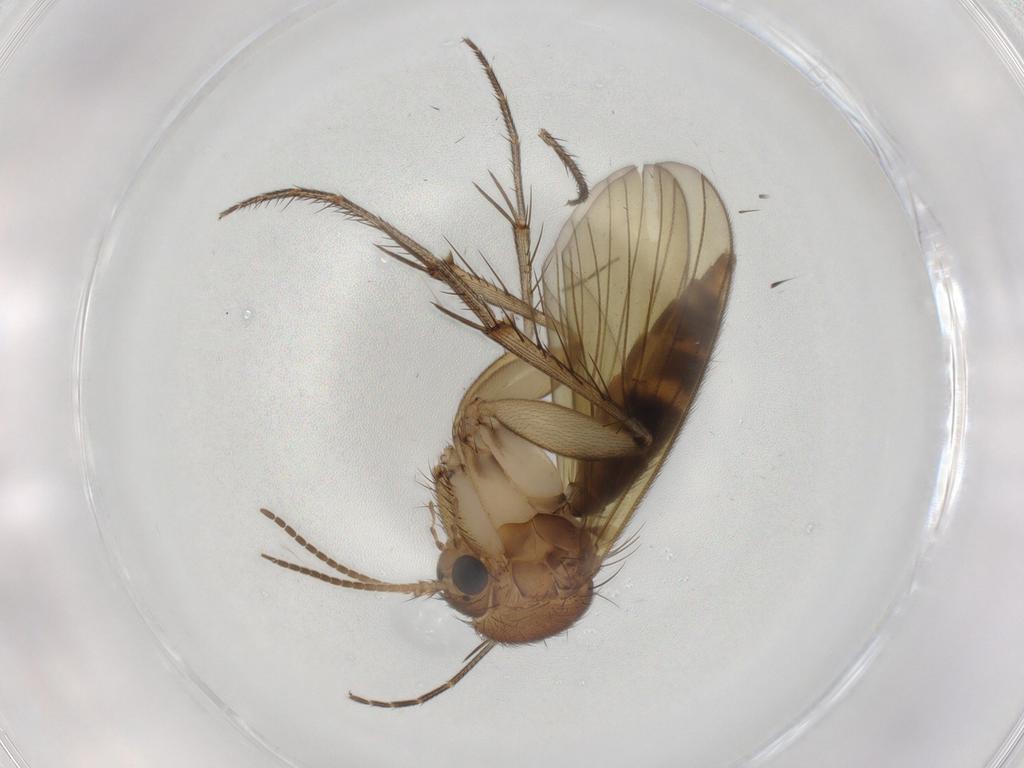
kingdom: Animalia
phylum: Arthropoda
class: Insecta
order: Diptera
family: Mycetophilidae
